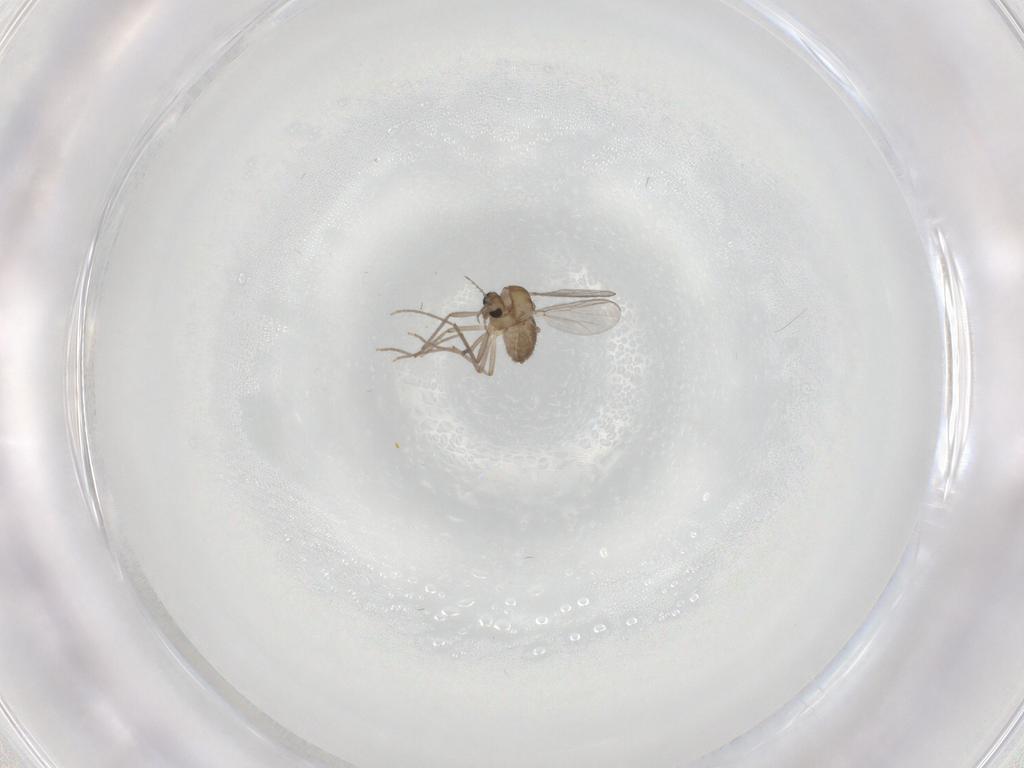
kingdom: Animalia
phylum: Arthropoda
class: Insecta
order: Diptera
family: Chironomidae
